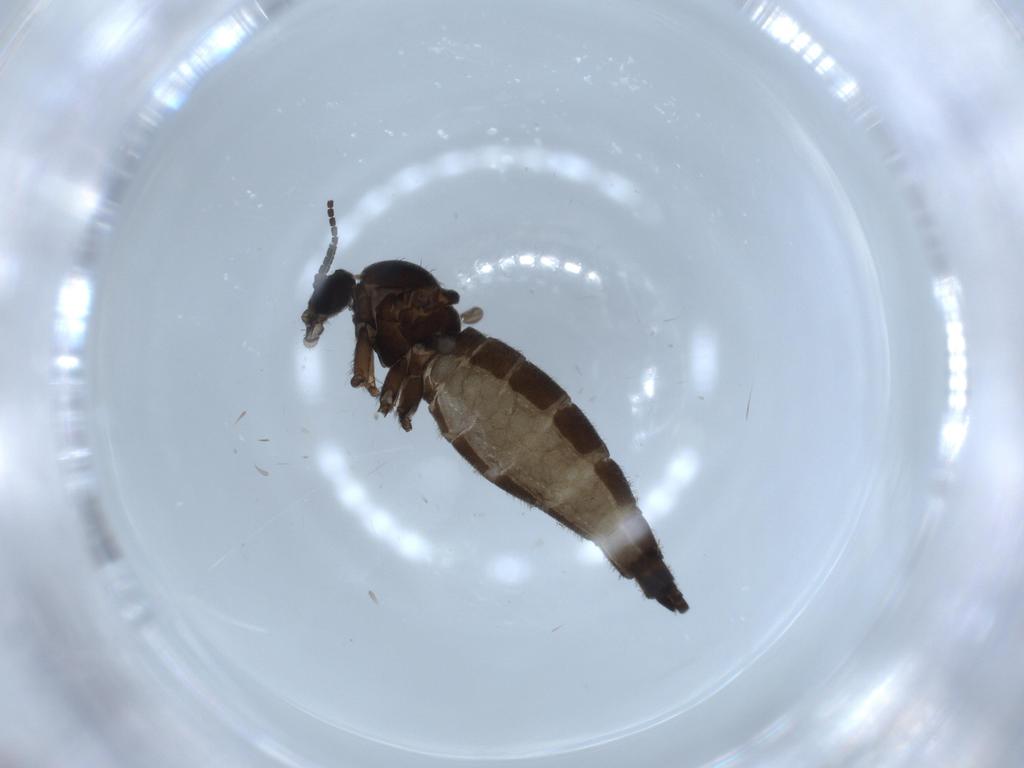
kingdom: Animalia
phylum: Arthropoda
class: Insecta
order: Diptera
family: Sciaridae
